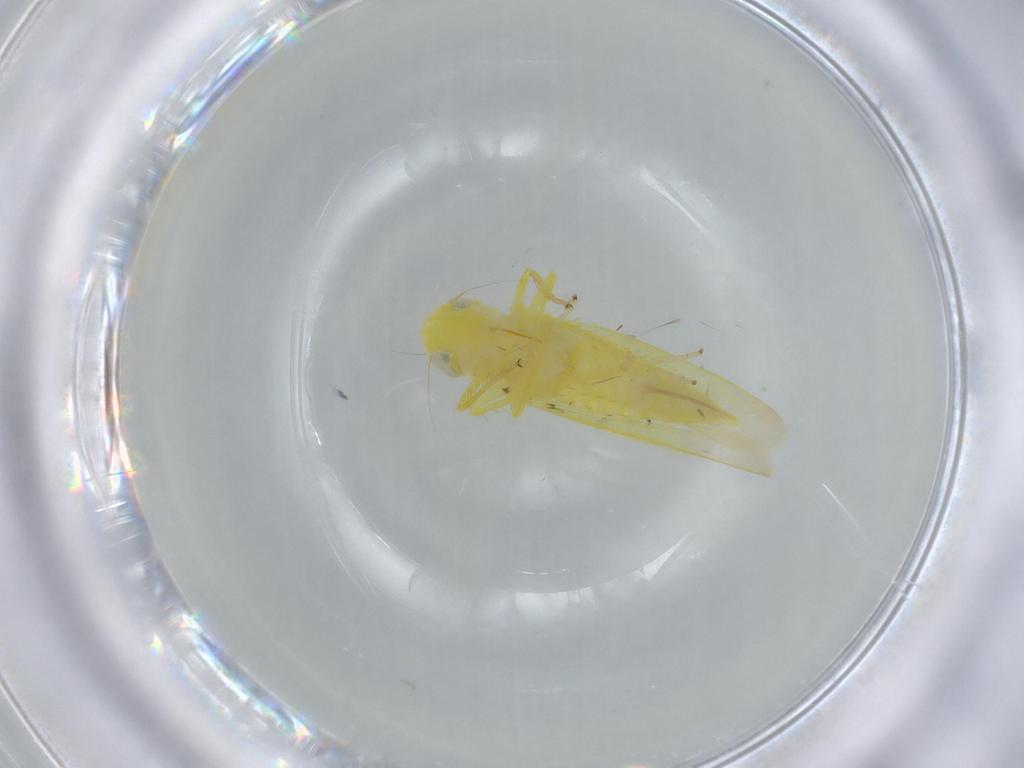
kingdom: Animalia
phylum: Arthropoda
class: Insecta
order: Hemiptera
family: Cicadellidae
